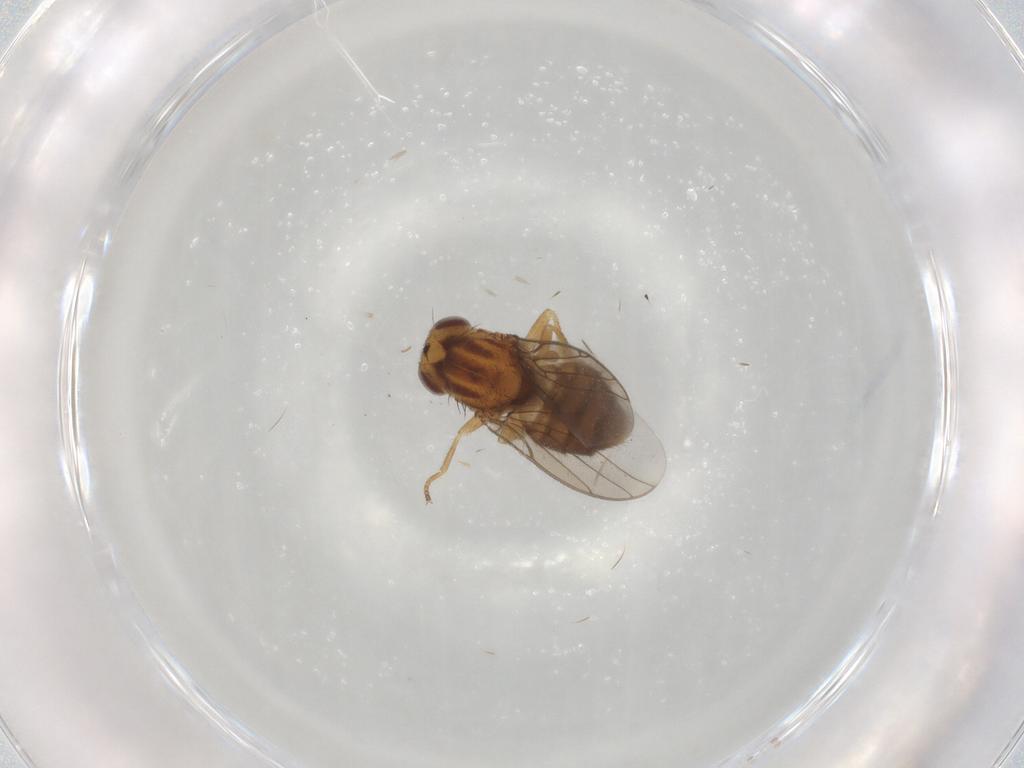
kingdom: Animalia
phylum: Arthropoda
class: Insecta
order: Diptera
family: Chloropidae
